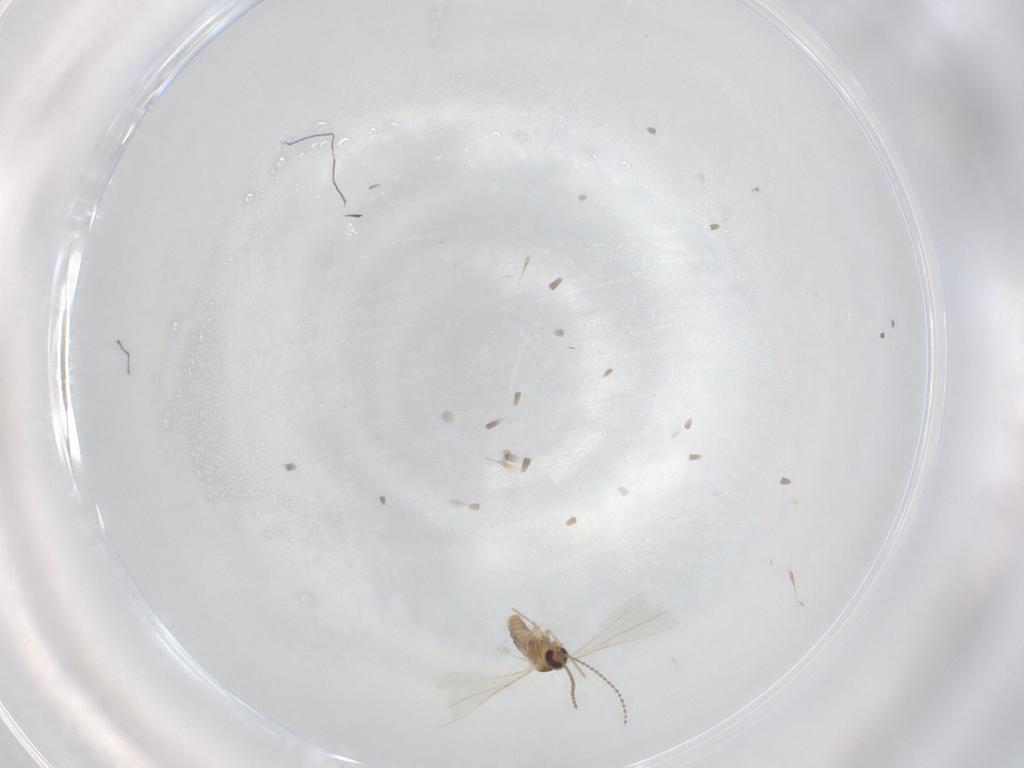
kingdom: Animalia
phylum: Arthropoda
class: Insecta
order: Diptera
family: Cecidomyiidae
